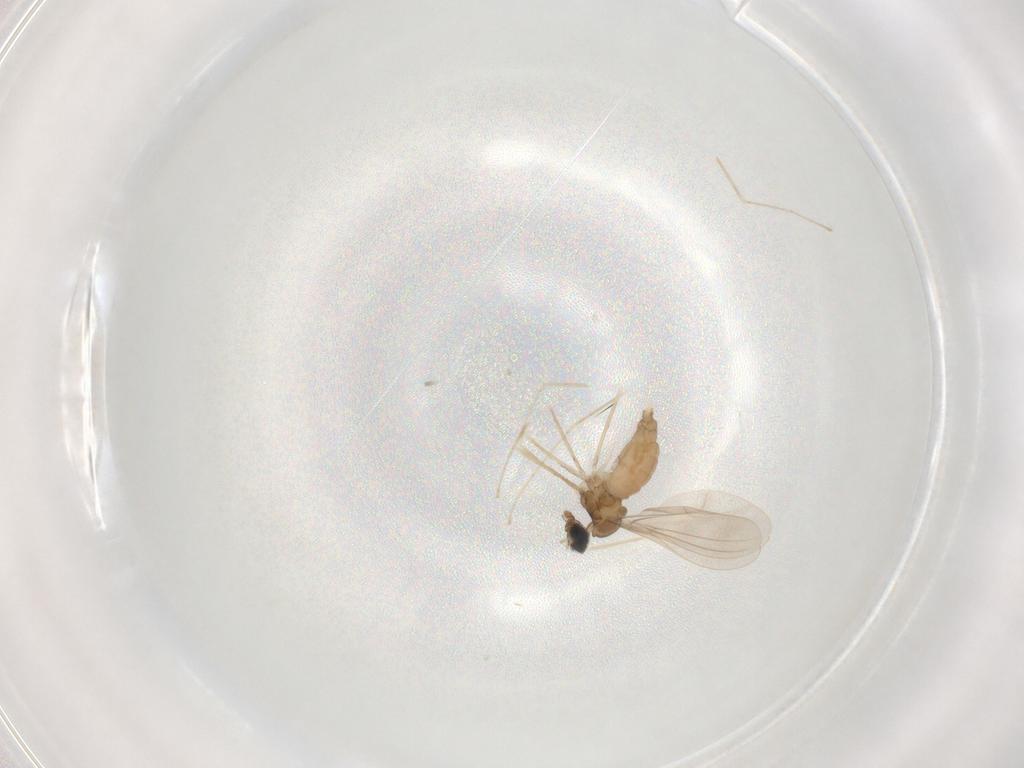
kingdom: Animalia
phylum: Arthropoda
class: Insecta
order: Diptera
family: Cecidomyiidae
